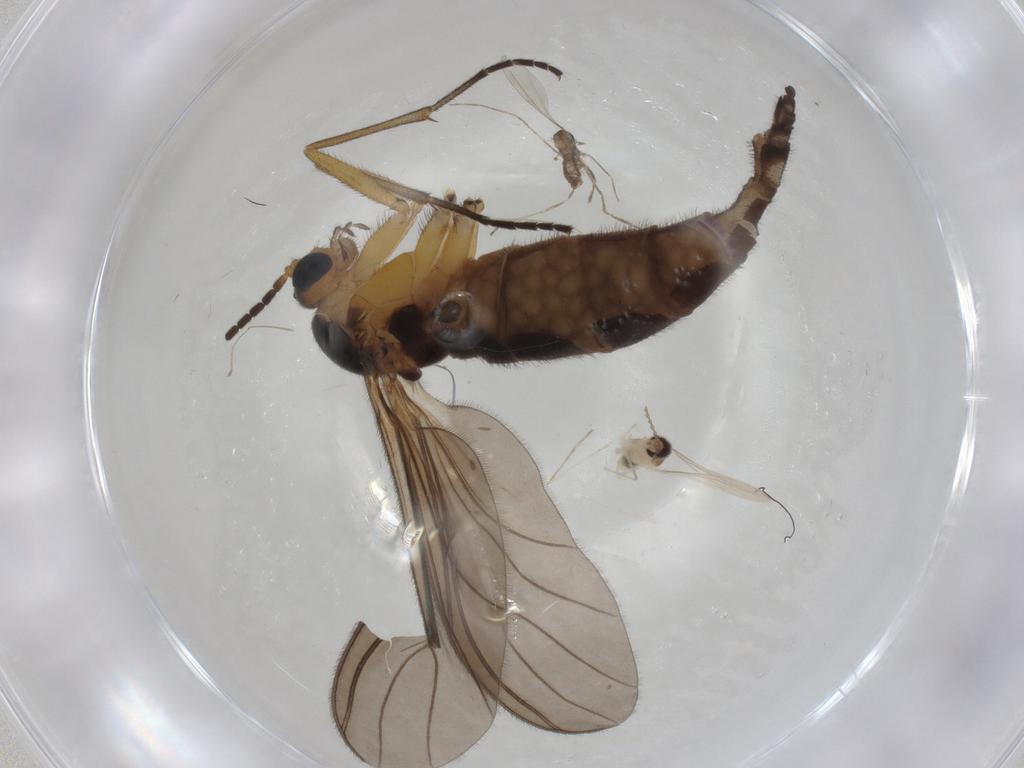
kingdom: Animalia
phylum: Arthropoda
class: Insecta
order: Diptera
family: Sciaridae
